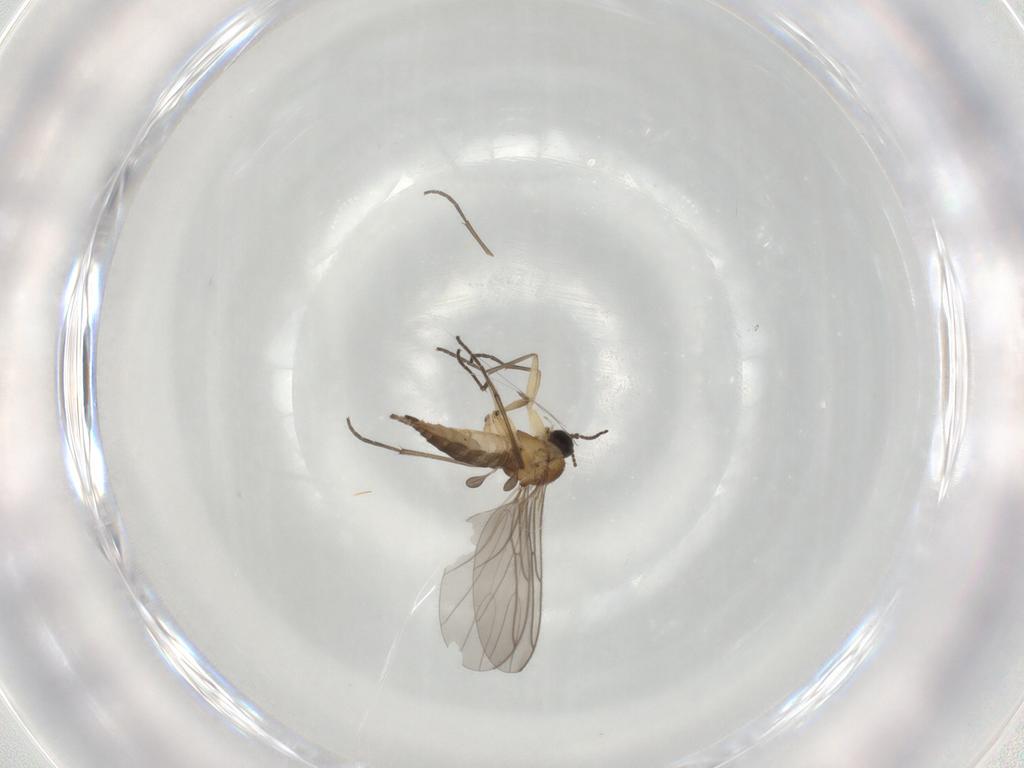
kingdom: Animalia
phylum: Arthropoda
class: Insecta
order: Diptera
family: Sciaridae
